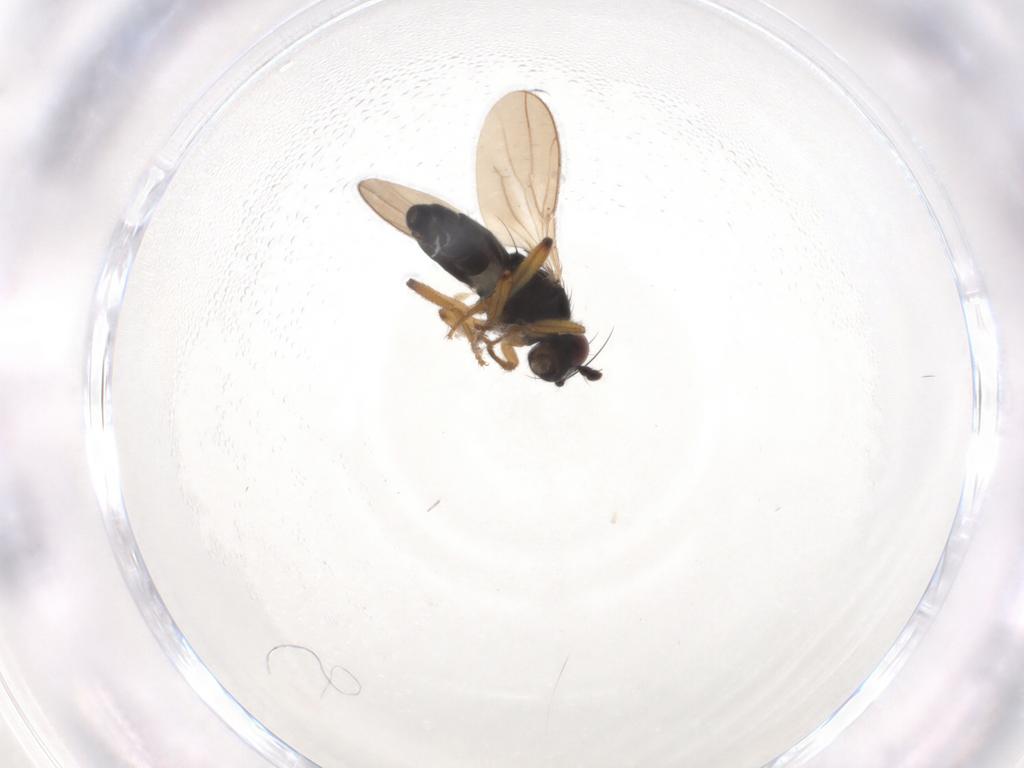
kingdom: Animalia
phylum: Arthropoda
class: Insecta
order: Diptera
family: Sphaeroceridae
